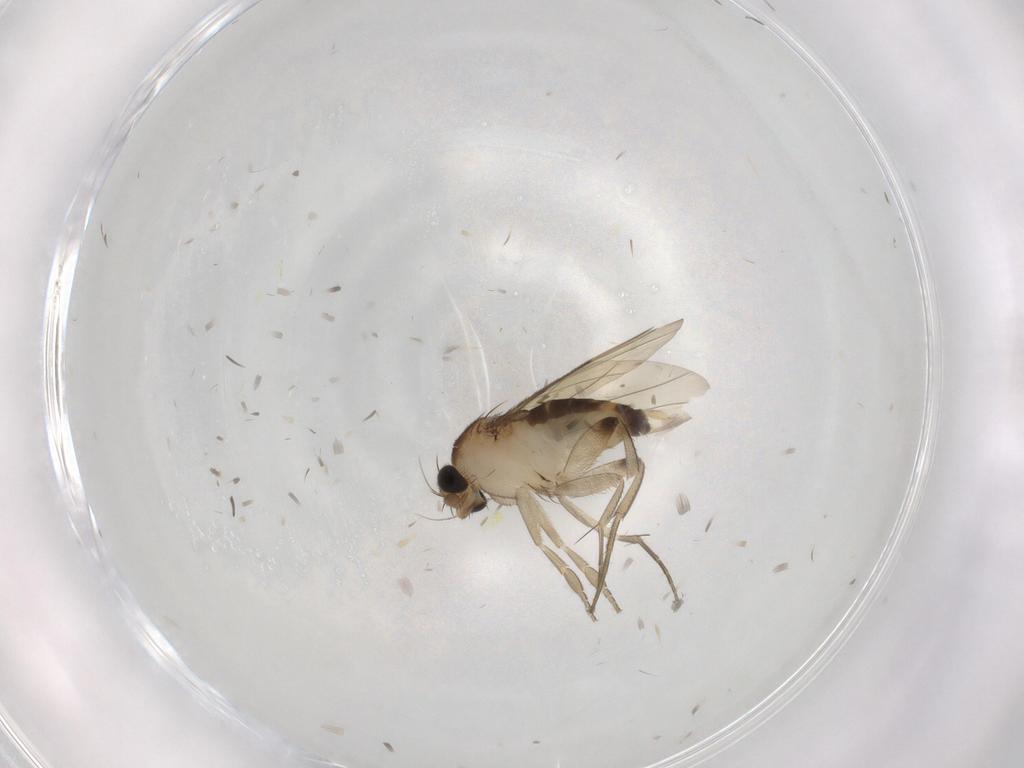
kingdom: Animalia
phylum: Arthropoda
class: Insecta
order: Diptera
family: Phoridae
